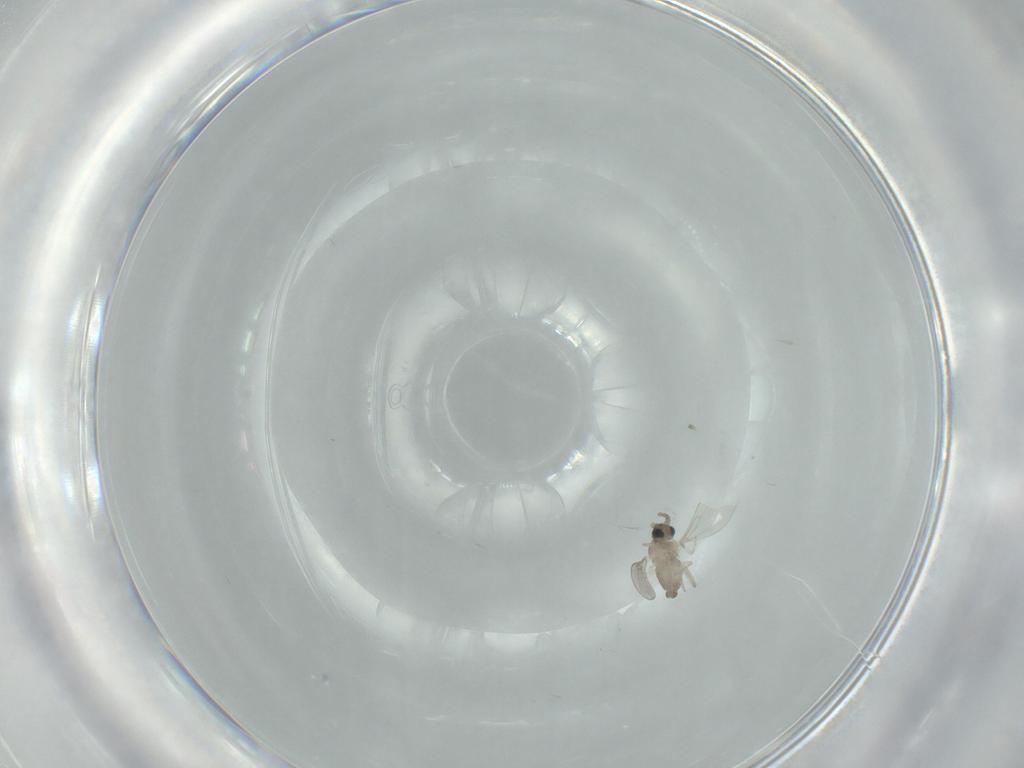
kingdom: Animalia
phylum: Arthropoda
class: Insecta
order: Diptera
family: Cecidomyiidae
